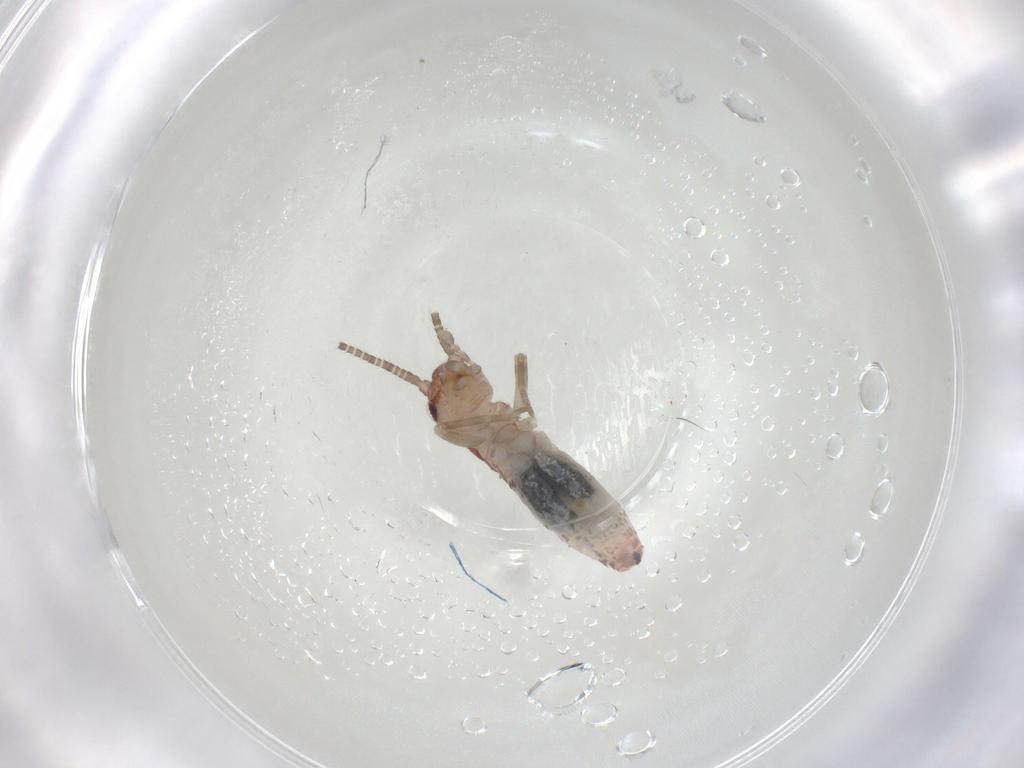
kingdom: Animalia
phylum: Arthropoda
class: Insecta
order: Orthoptera
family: Mogoplistidae
